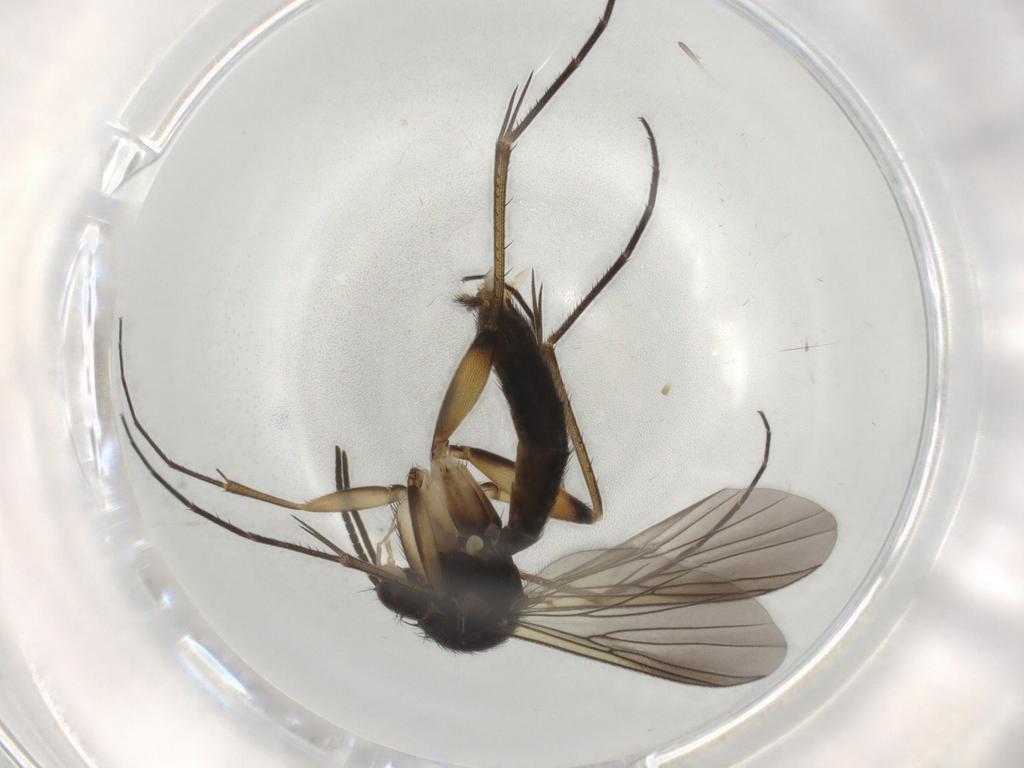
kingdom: Animalia
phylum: Arthropoda
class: Insecta
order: Diptera
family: Mycetophilidae
